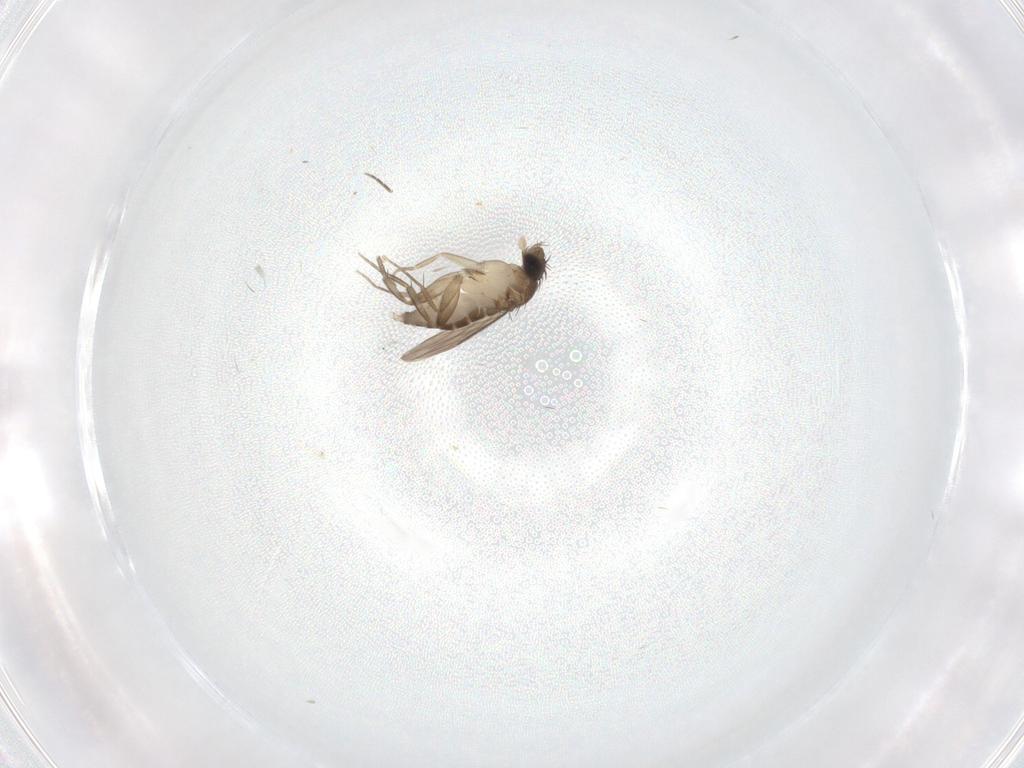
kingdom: Animalia
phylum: Arthropoda
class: Insecta
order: Diptera
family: Phoridae
